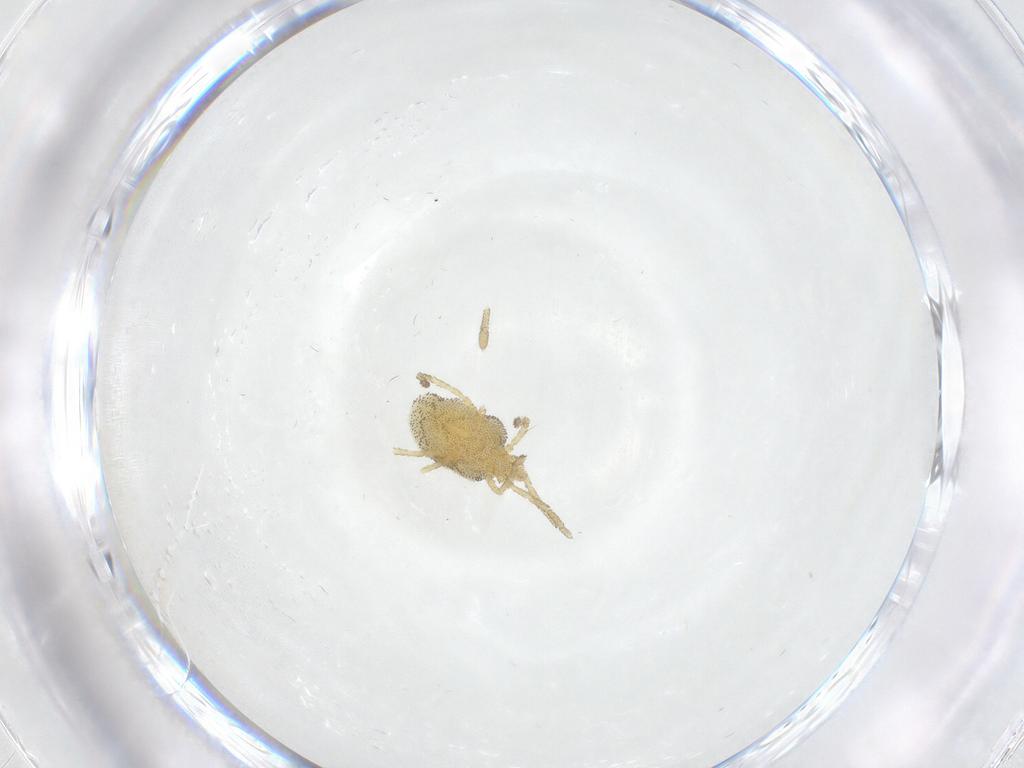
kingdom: Animalia
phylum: Arthropoda
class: Arachnida
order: Trombidiformes
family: Smarididae
